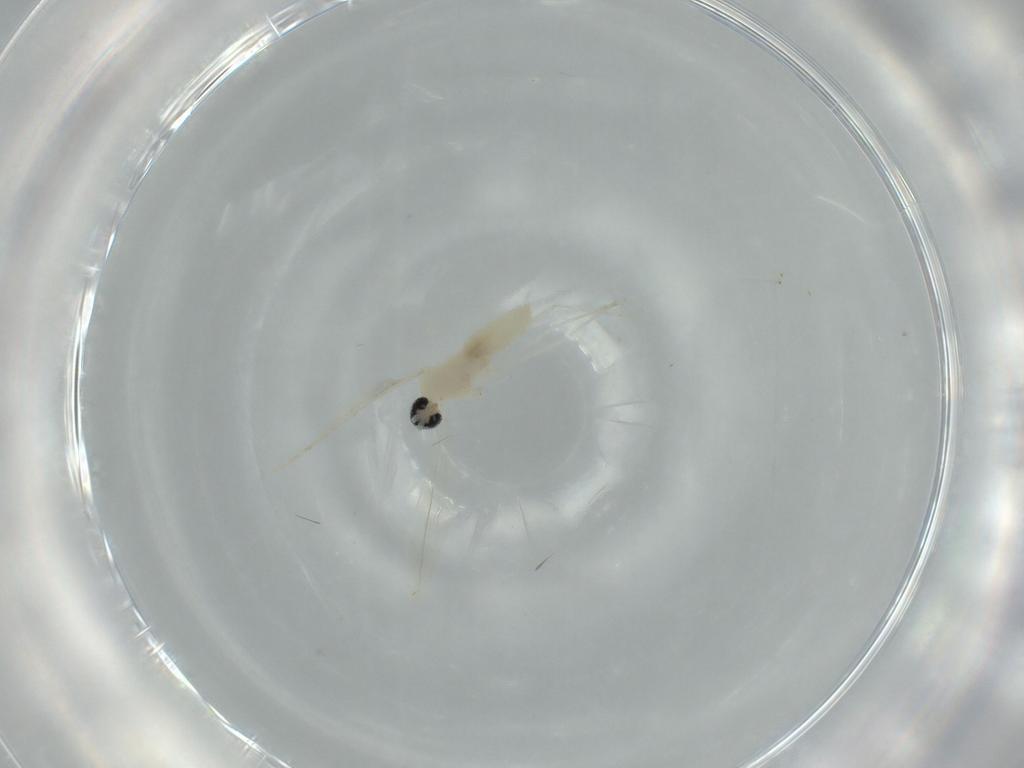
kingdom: Animalia
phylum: Arthropoda
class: Insecta
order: Diptera
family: Cecidomyiidae
